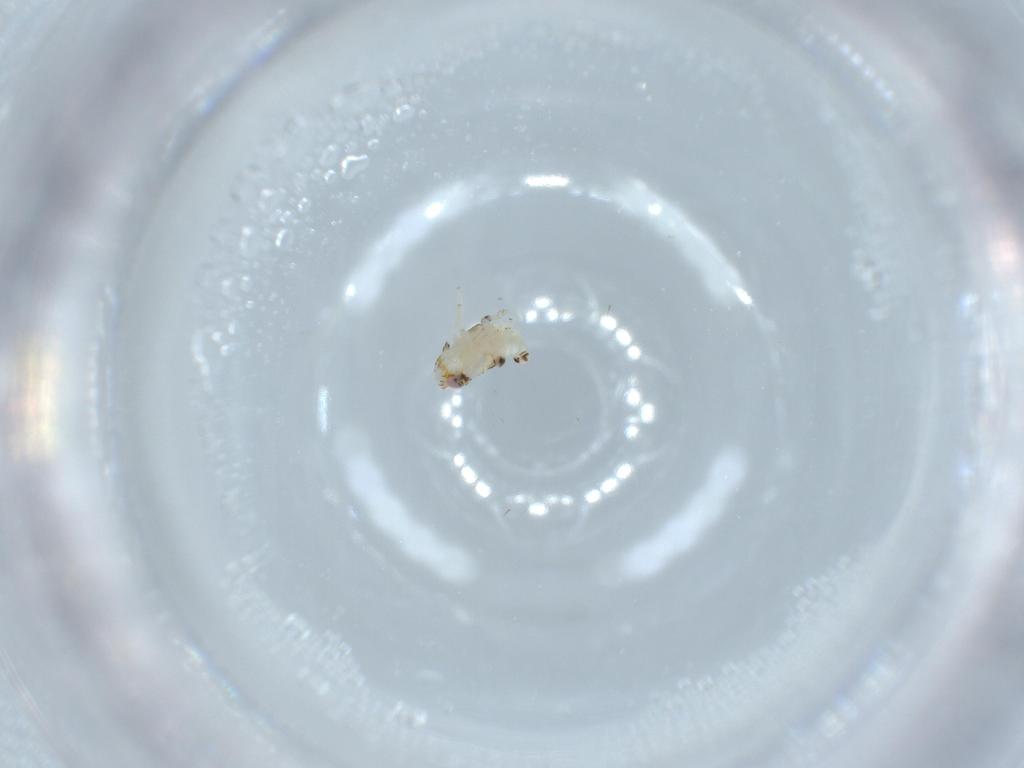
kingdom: Animalia
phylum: Arthropoda
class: Insecta
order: Hemiptera
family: Nogodinidae
